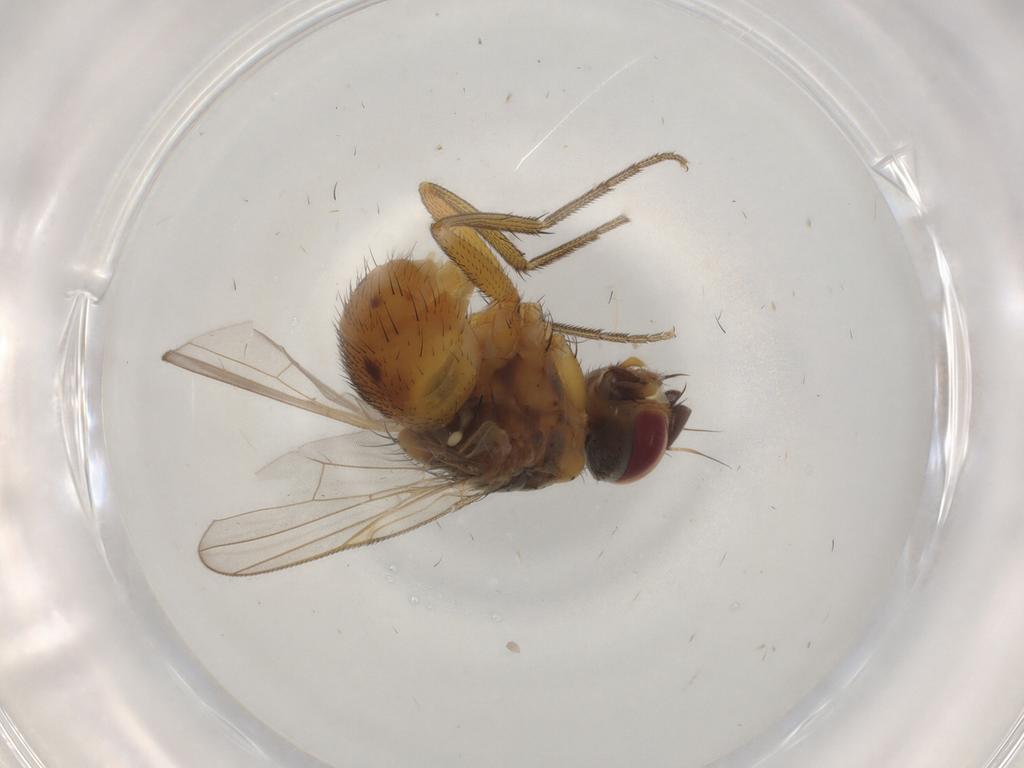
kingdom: Animalia
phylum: Arthropoda
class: Insecta
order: Diptera
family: Muscidae
